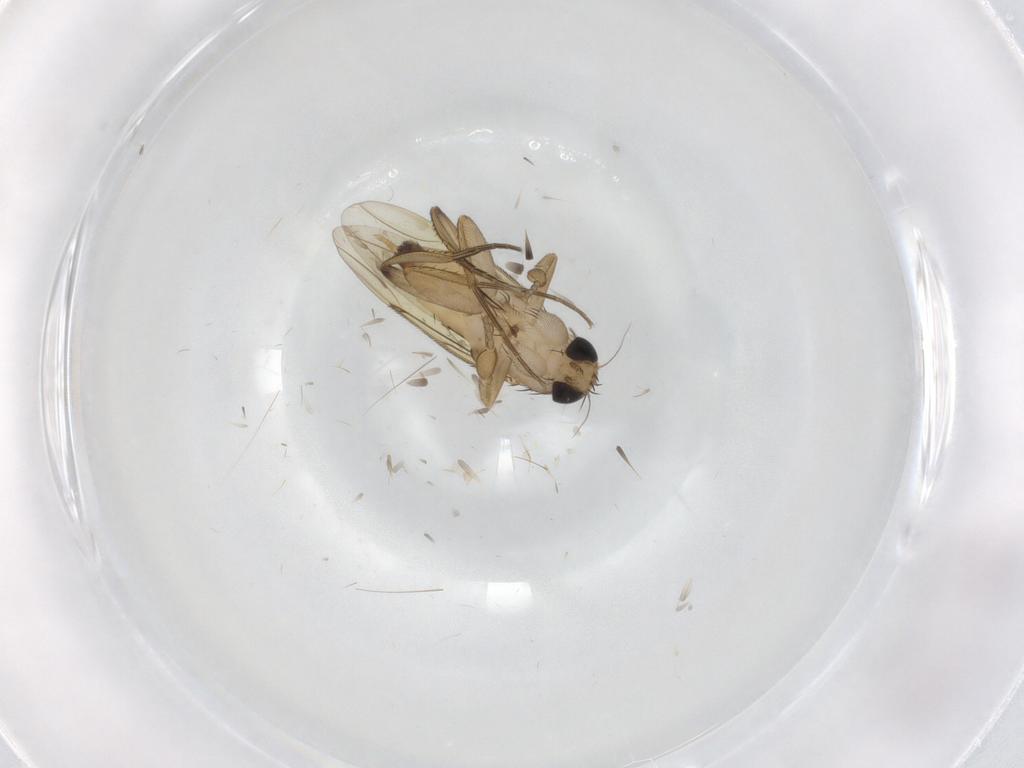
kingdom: Animalia
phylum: Arthropoda
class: Insecta
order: Diptera
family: Phoridae
